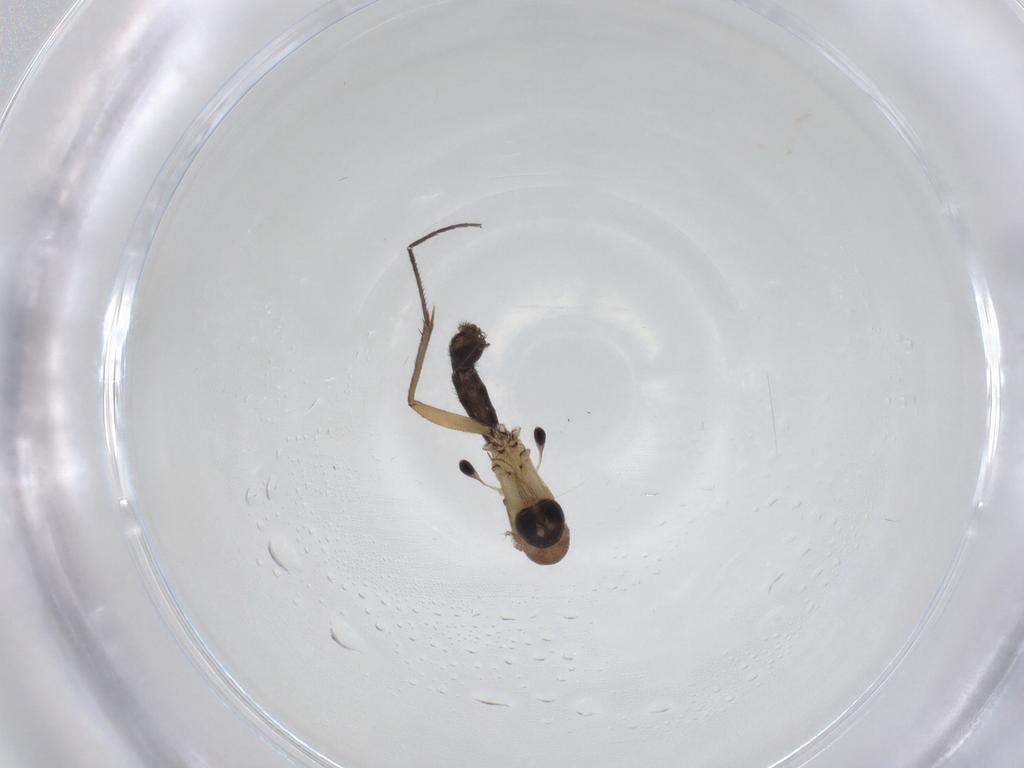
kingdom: Animalia
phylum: Arthropoda
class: Insecta
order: Diptera
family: Mycetophilidae
